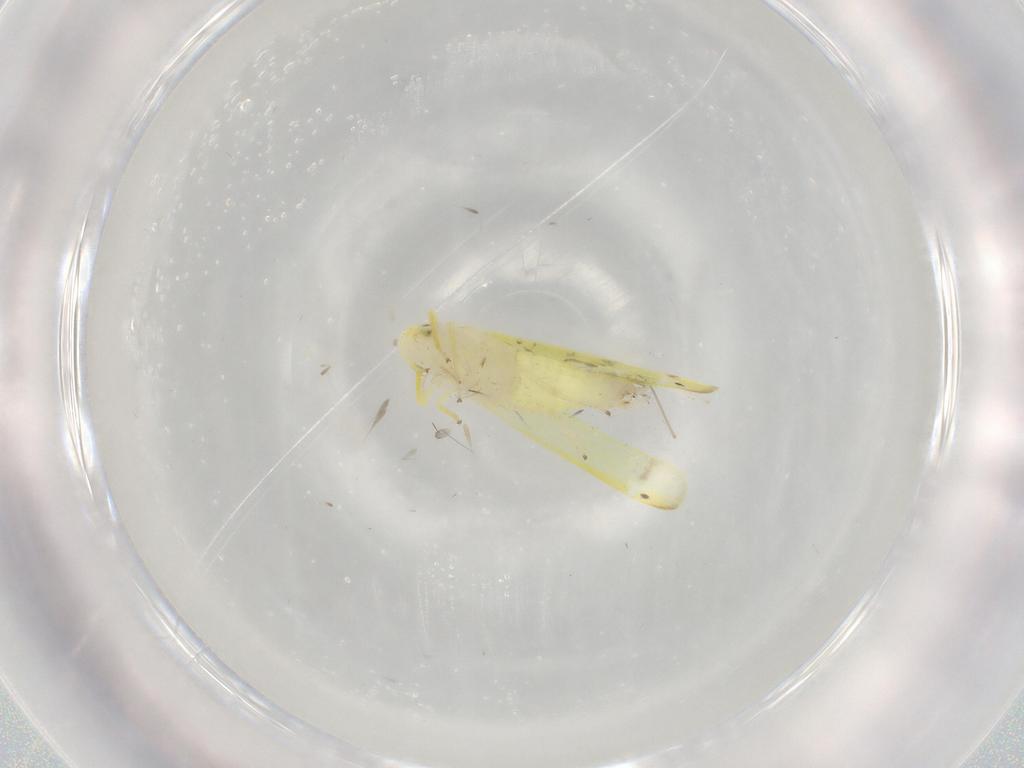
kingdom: Animalia
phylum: Arthropoda
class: Insecta
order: Hemiptera
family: Cicadellidae
